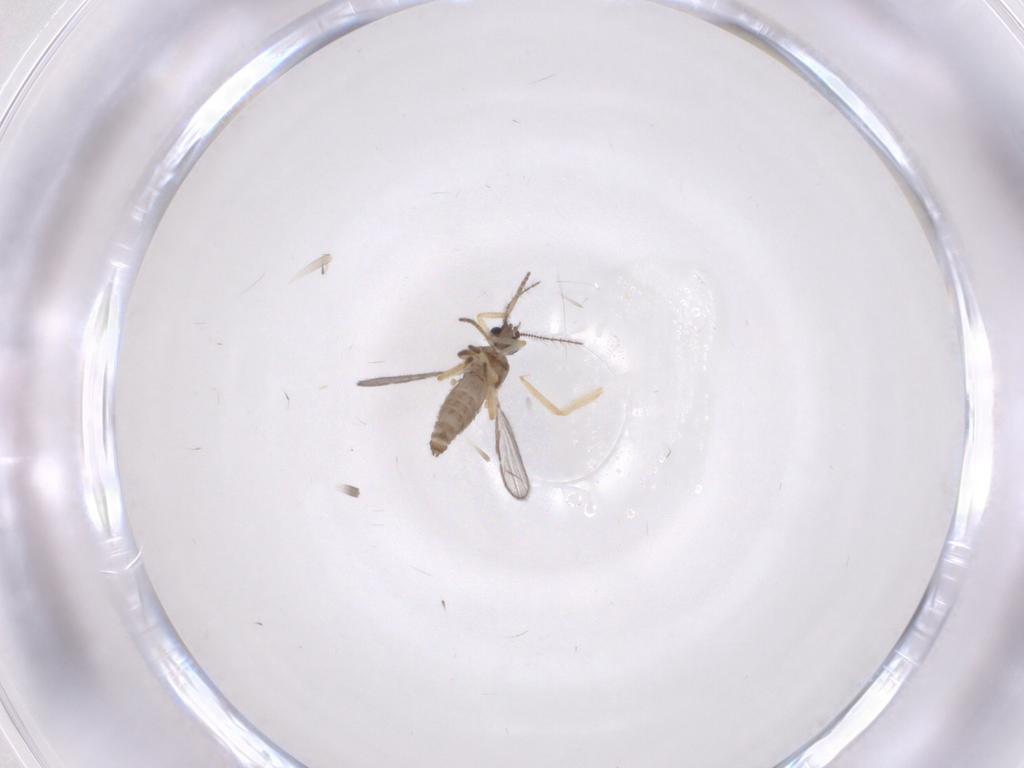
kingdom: Animalia
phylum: Arthropoda
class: Insecta
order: Diptera
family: Ceratopogonidae
